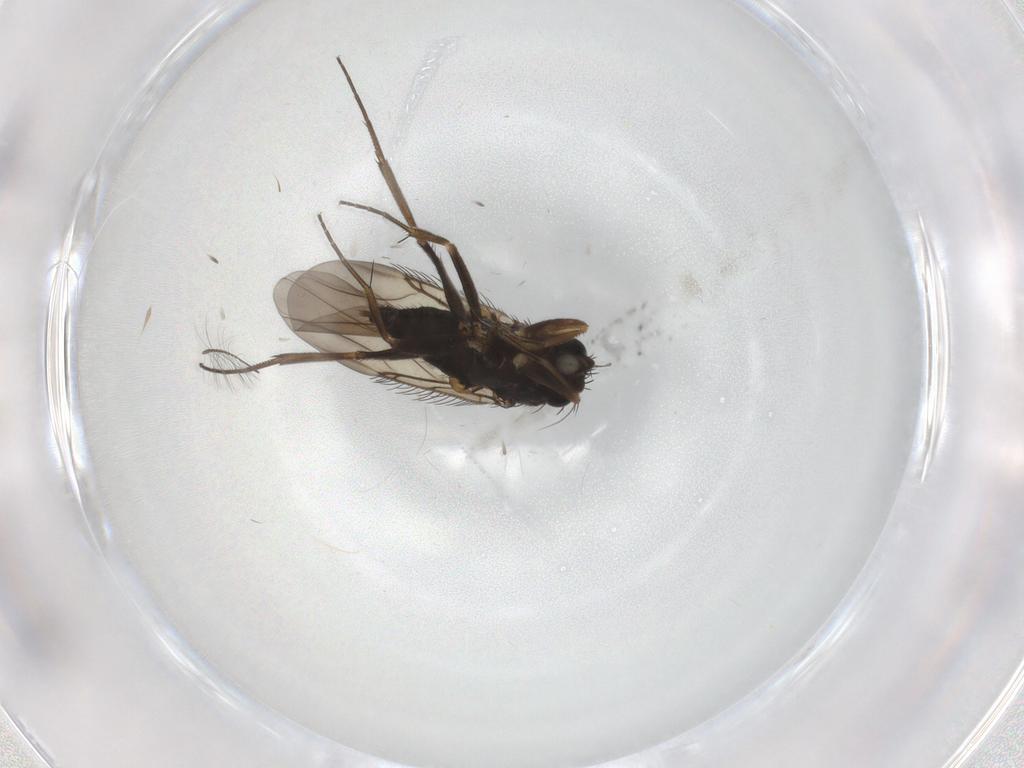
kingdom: Animalia
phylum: Arthropoda
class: Insecta
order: Diptera
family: Phoridae
